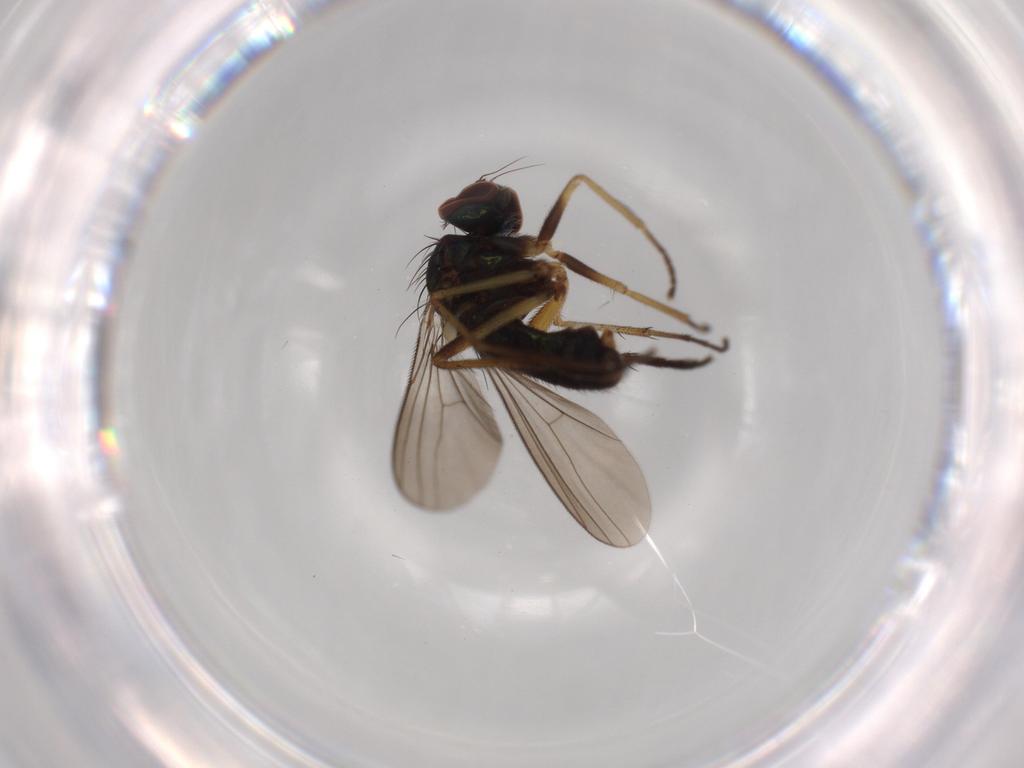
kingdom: Animalia
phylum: Arthropoda
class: Insecta
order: Diptera
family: Dolichopodidae
